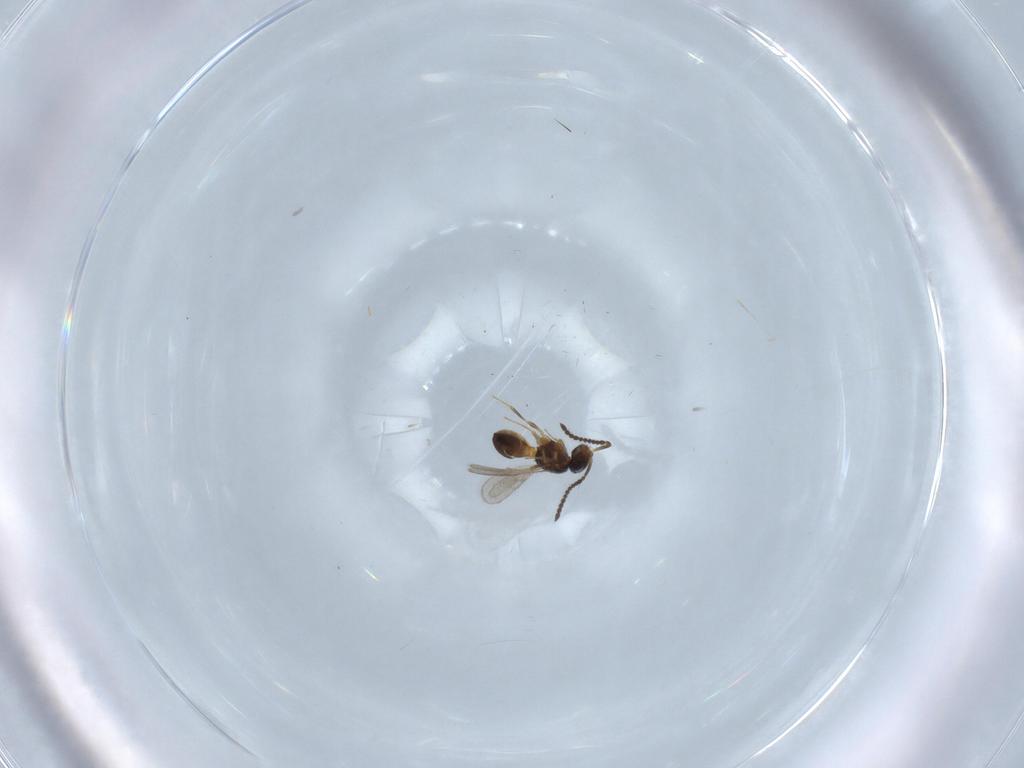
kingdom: Animalia
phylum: Arthropoda
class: Insecta
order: Hymenoptera
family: Scelionidae
